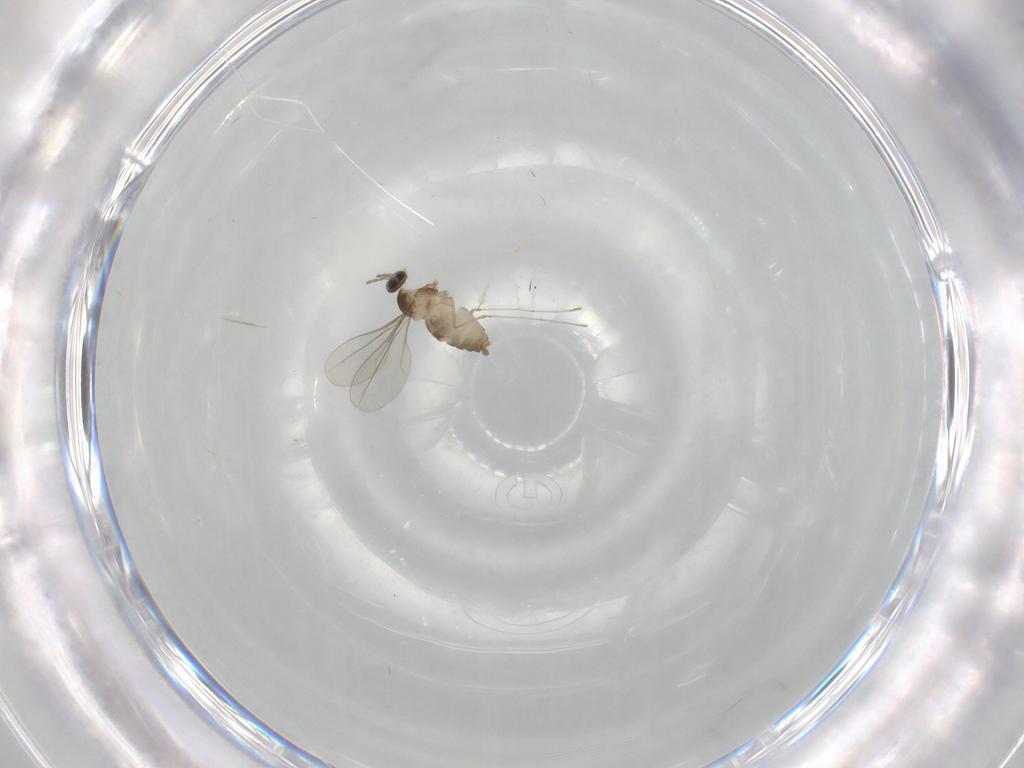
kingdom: Animalia
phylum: Arthropoda
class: Insecta
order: Diptera
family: Cecidomyiidae
